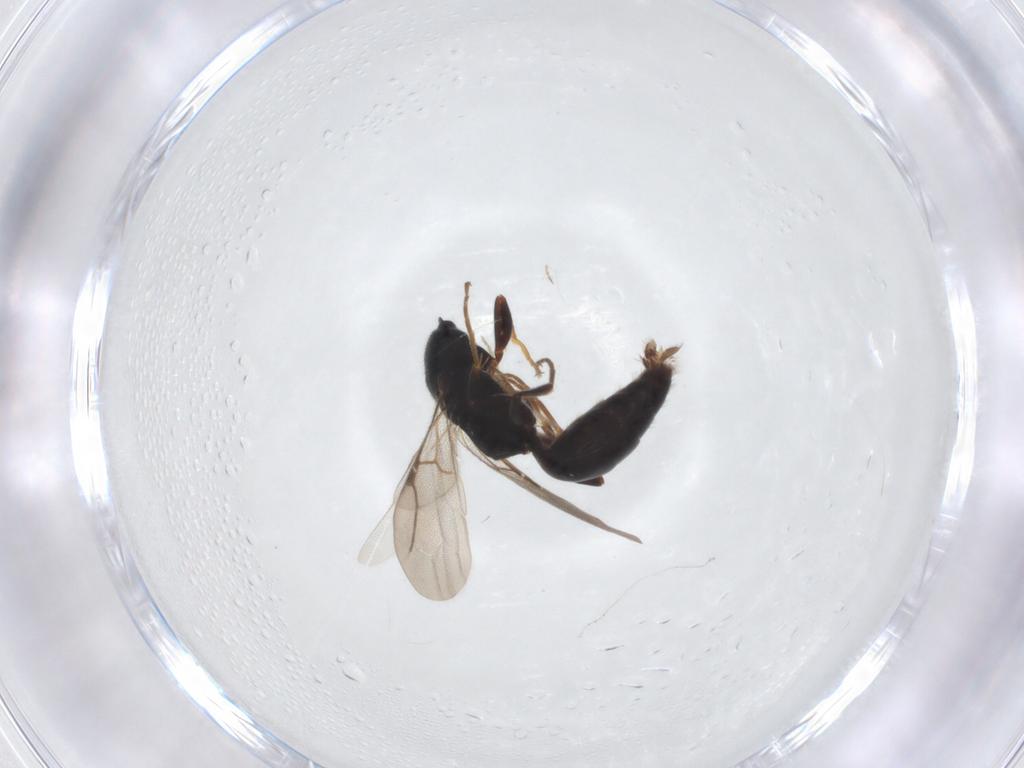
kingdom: Animalia
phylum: Arthropoda
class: Insecta
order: Hymenoptera
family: Bethylidae
